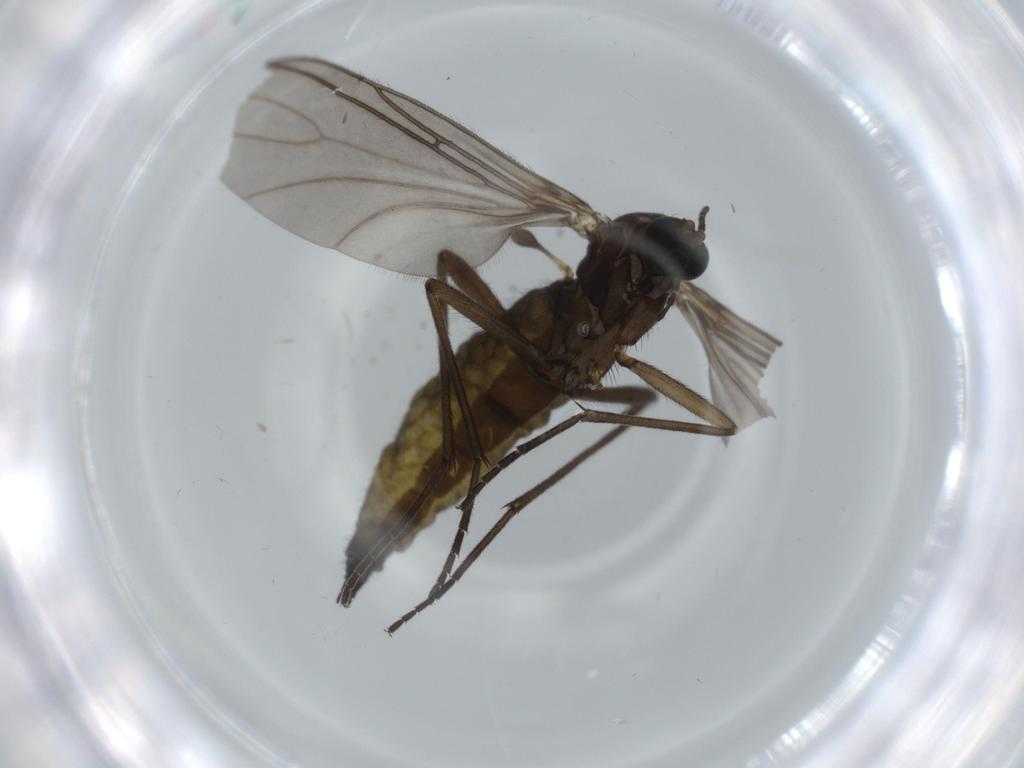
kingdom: Animalia
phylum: Arthropoda
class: Insecta
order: Diptera
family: Sciaridae
